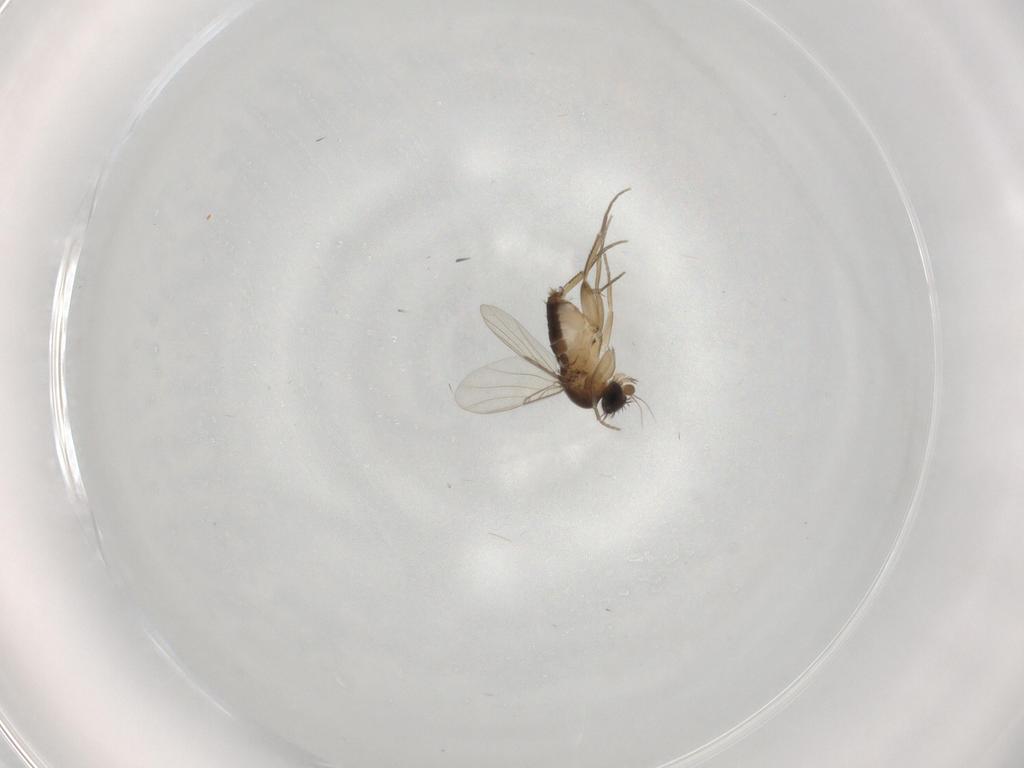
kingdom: Animalia
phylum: Arthropoda
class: Insecta
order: Diptera
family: Phoridae
